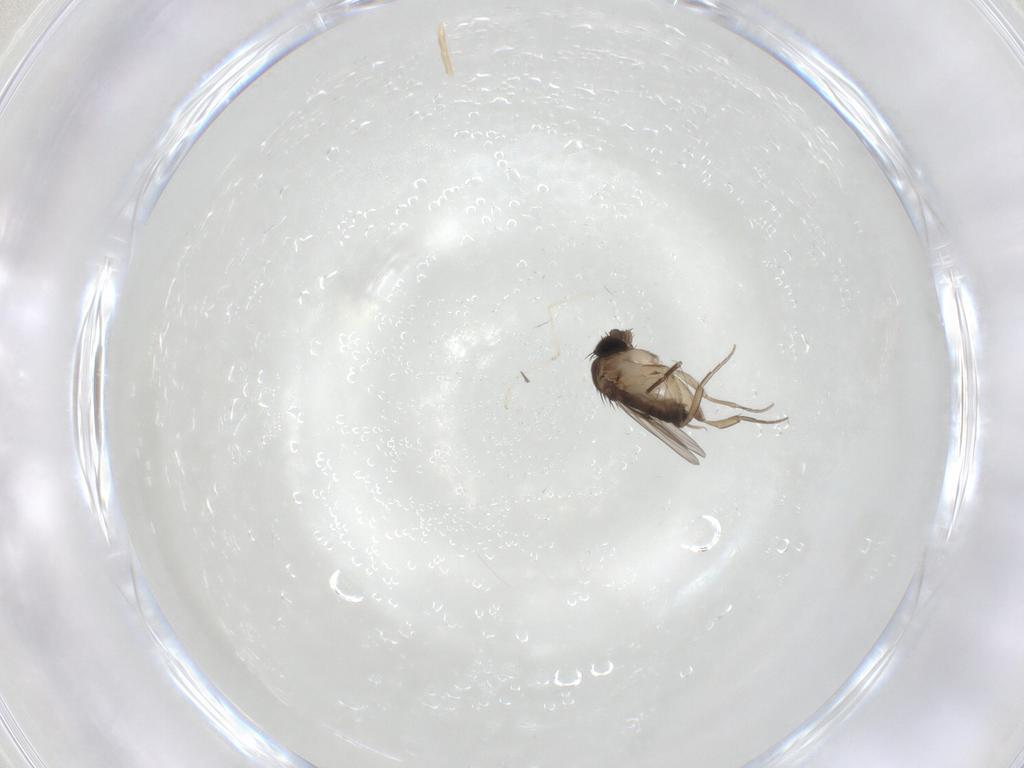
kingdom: Animalia
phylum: Arthropoda
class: Insecta
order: Diptera
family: Phoridae
